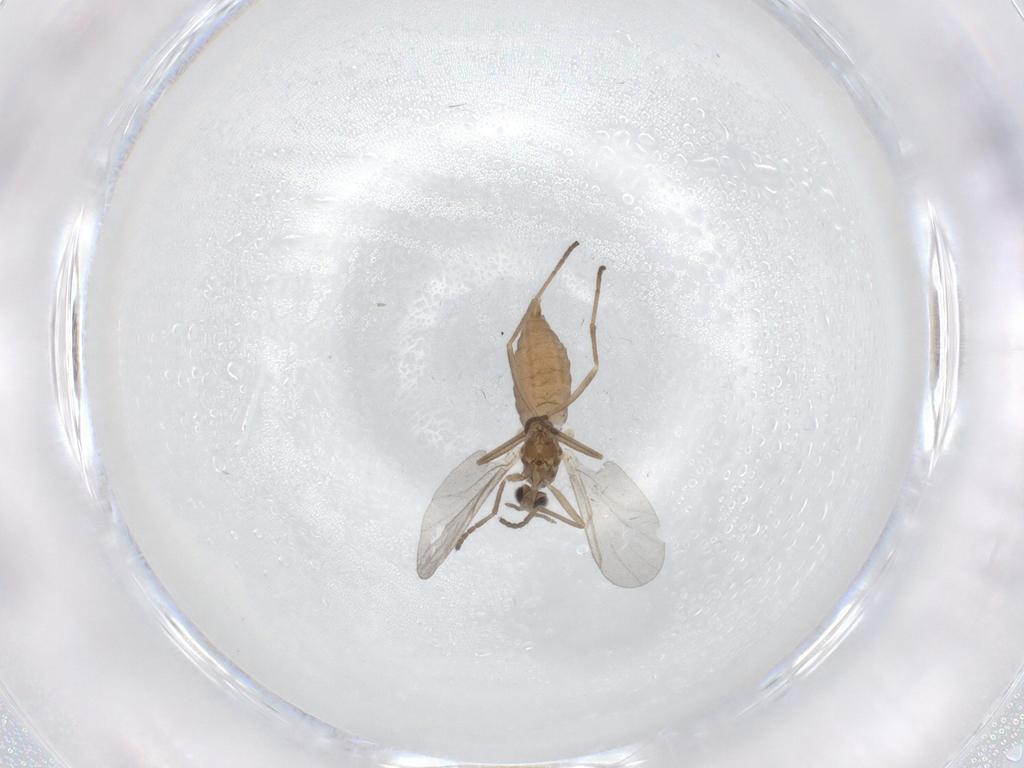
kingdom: Animalia
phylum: Arthropoda
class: Insecta
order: Diptera
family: Cecidomyiidae
